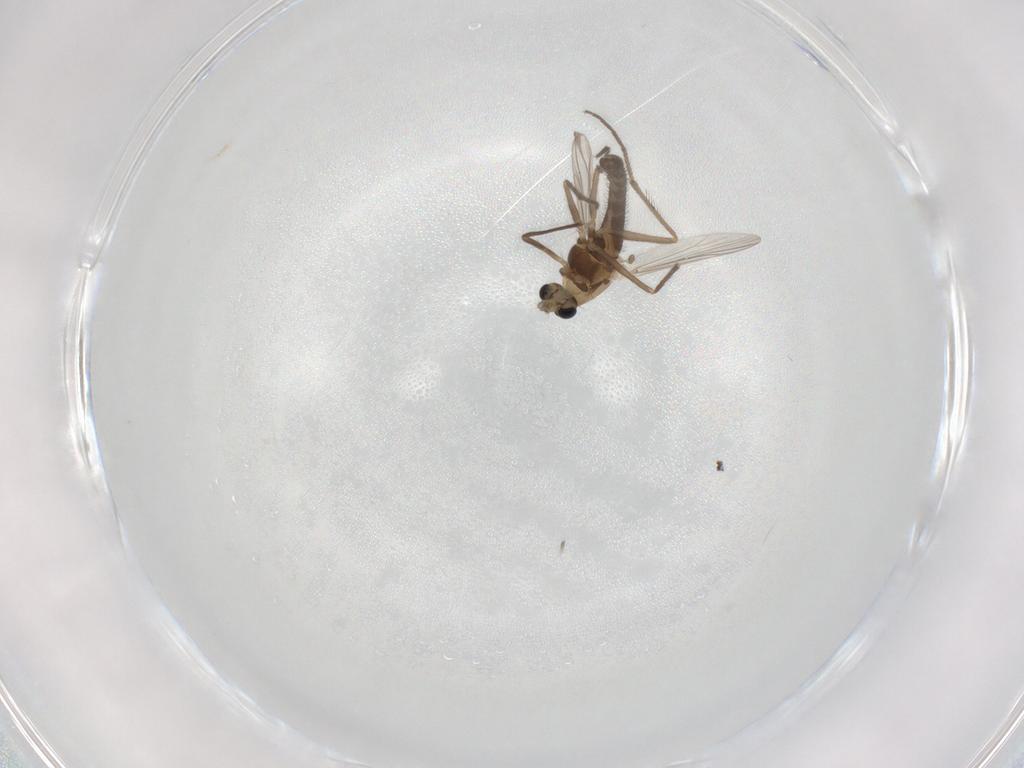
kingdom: Animalia
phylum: Arthropoda
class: Insecta
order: Diptera
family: Chironomidae
